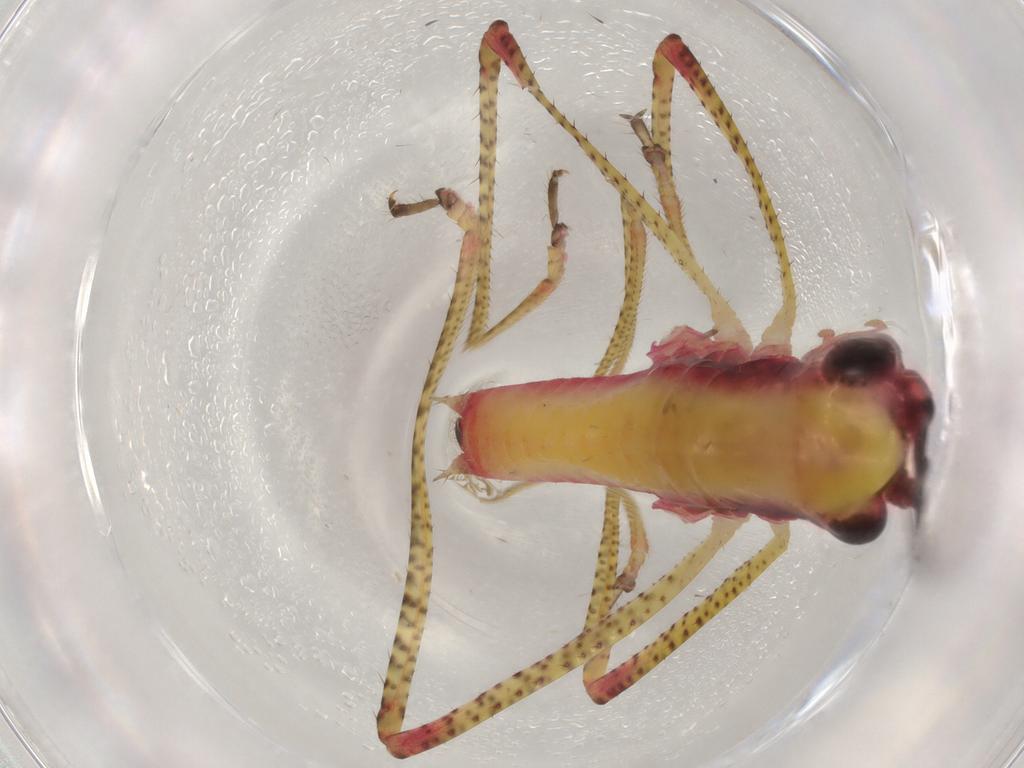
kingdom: Animalia
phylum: Arthropoda
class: Insecta
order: Orthoptera
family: Tettigoniidae
